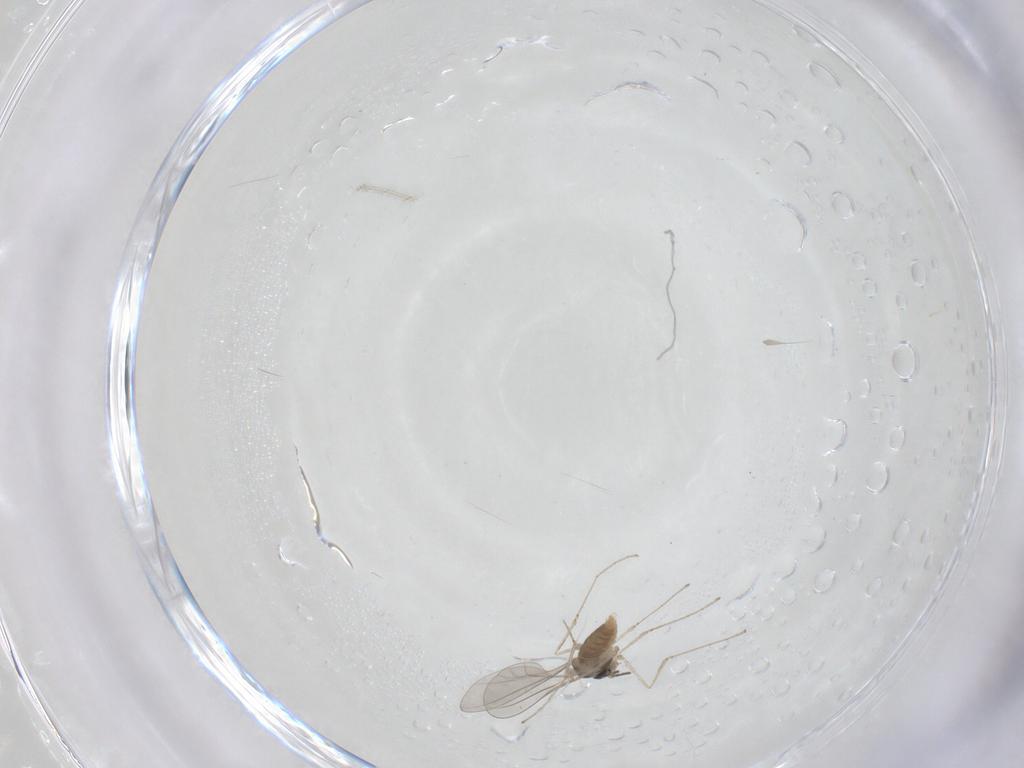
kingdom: Animalia
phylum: Arthropoda
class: Insecta
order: Diptera
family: Cecidomyiidae
